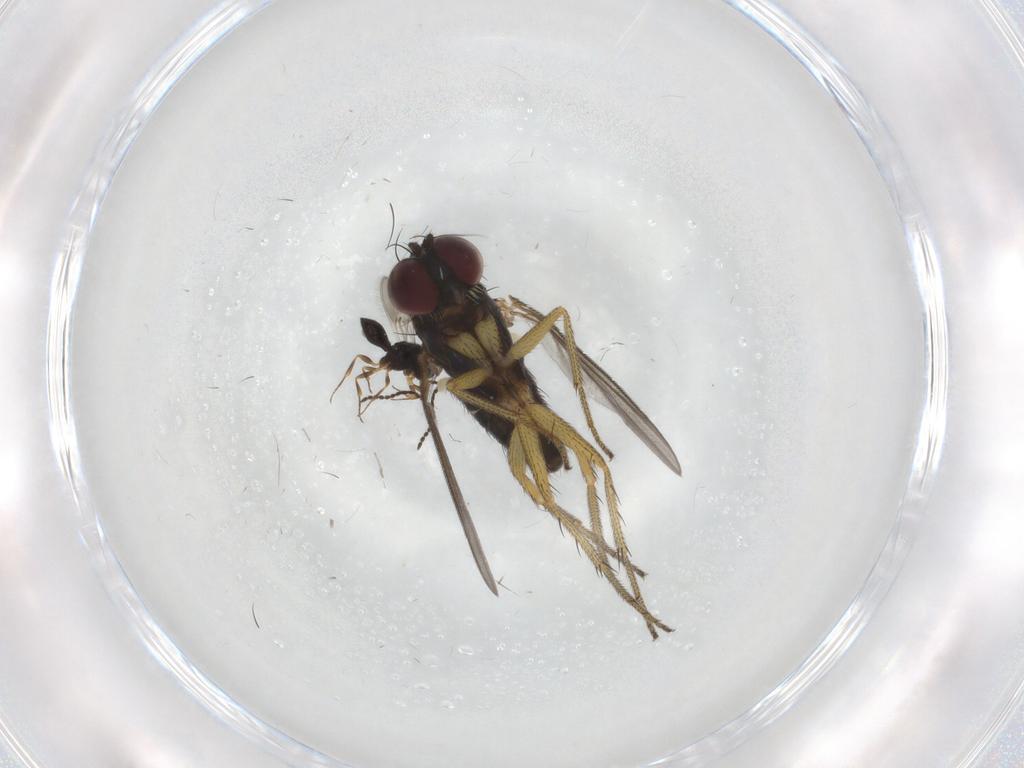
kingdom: Animalia
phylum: Arthropoda
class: Insecta
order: Hymenoptera
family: Scelionidae
